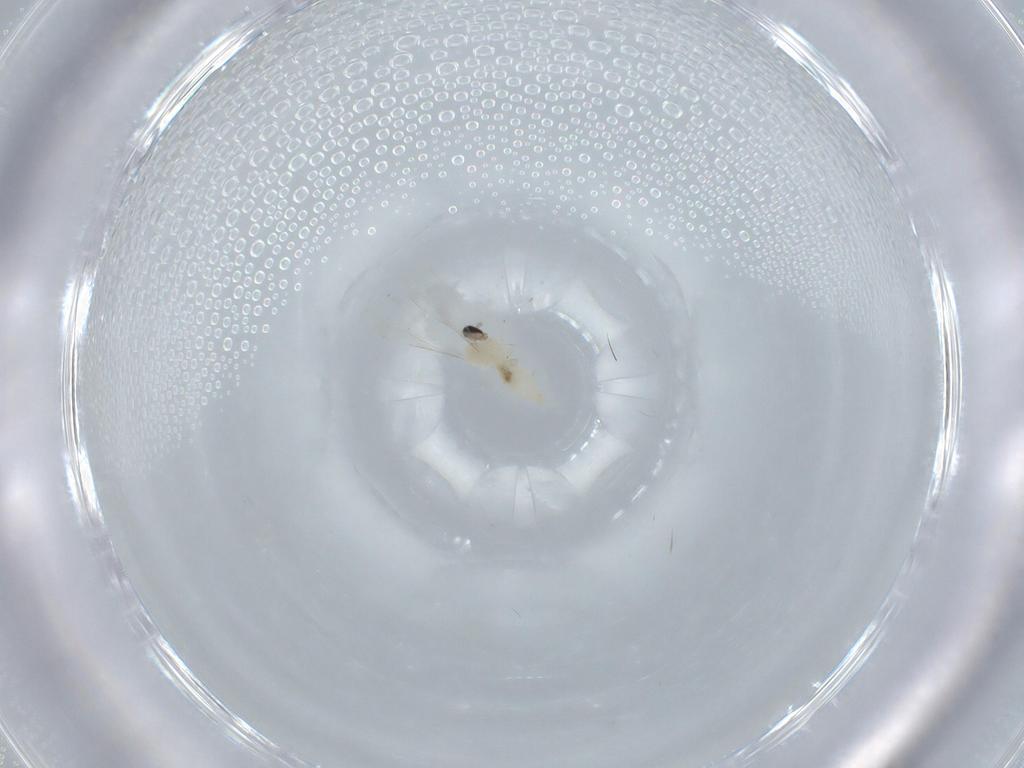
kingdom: Animalia
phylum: Arthropoda
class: Insecta
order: Diptera
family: Cecidomyiidae
